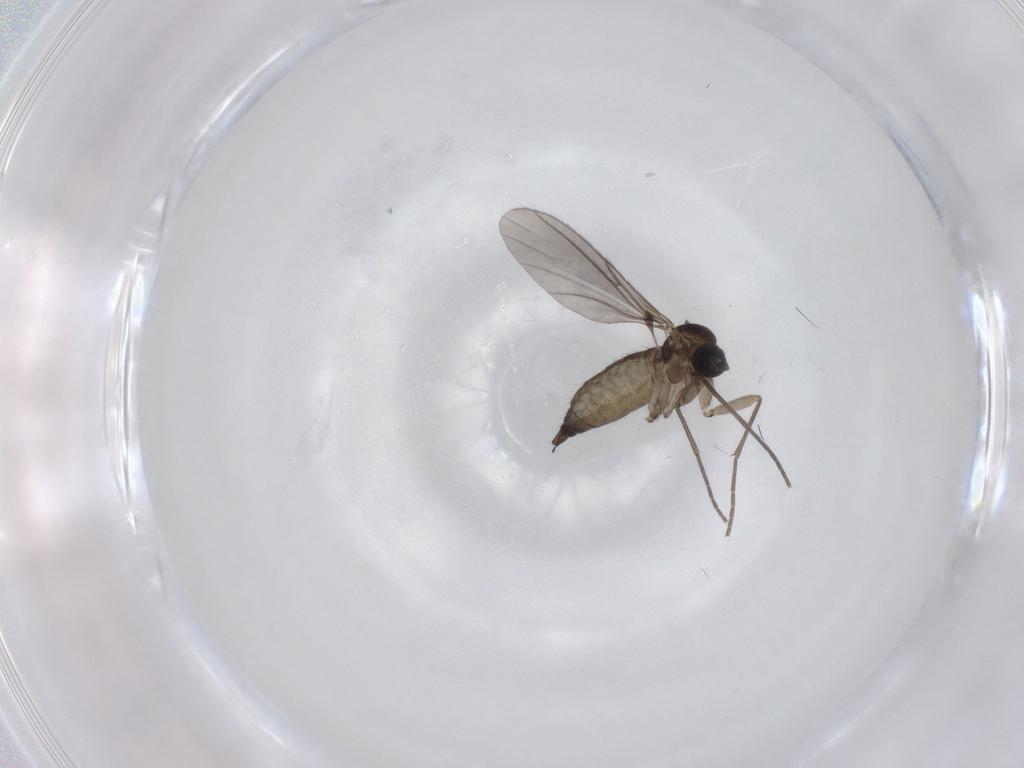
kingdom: Animalia
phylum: Arthropoda
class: Insecta
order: Diptera
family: Sciaridae
